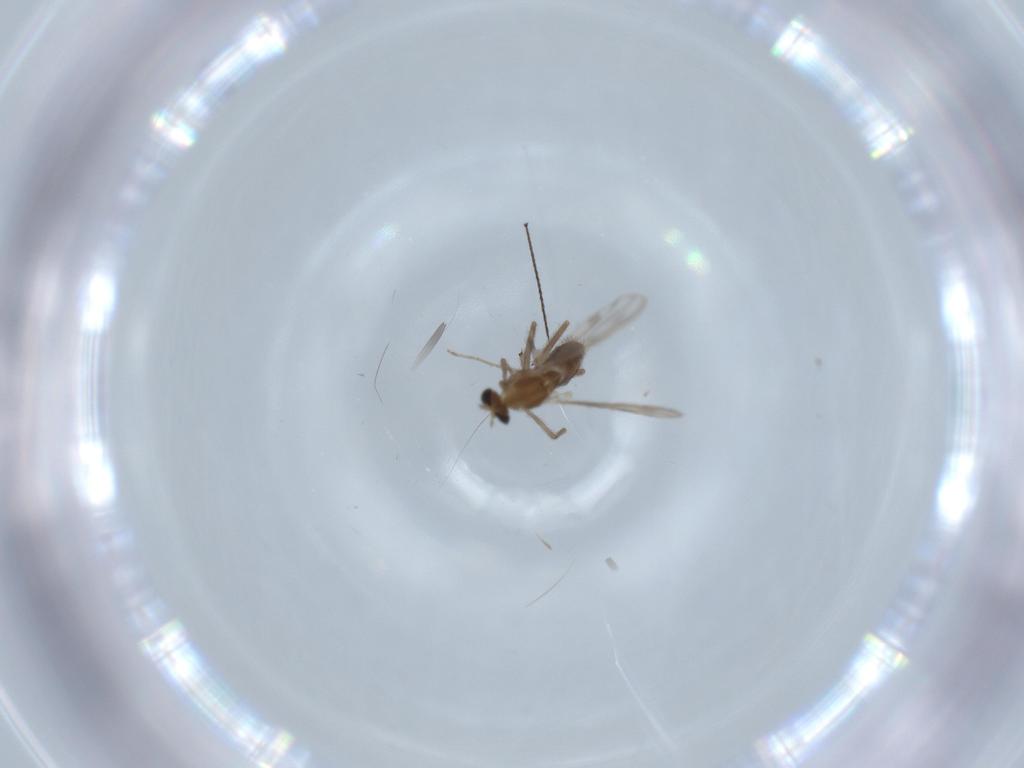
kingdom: Animalia
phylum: Arthropoda
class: Insecta
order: Diptera
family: Chironomidae
